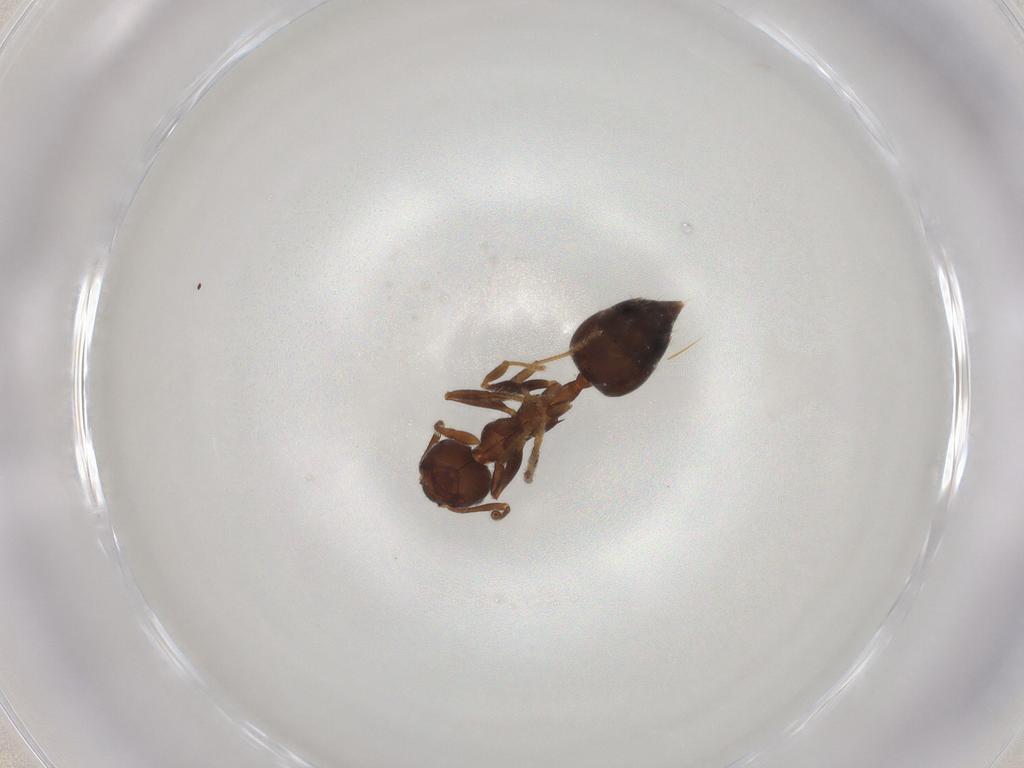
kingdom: Animalia
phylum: Arthropoda
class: Insecta
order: Hymenoptera
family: Formicidae
